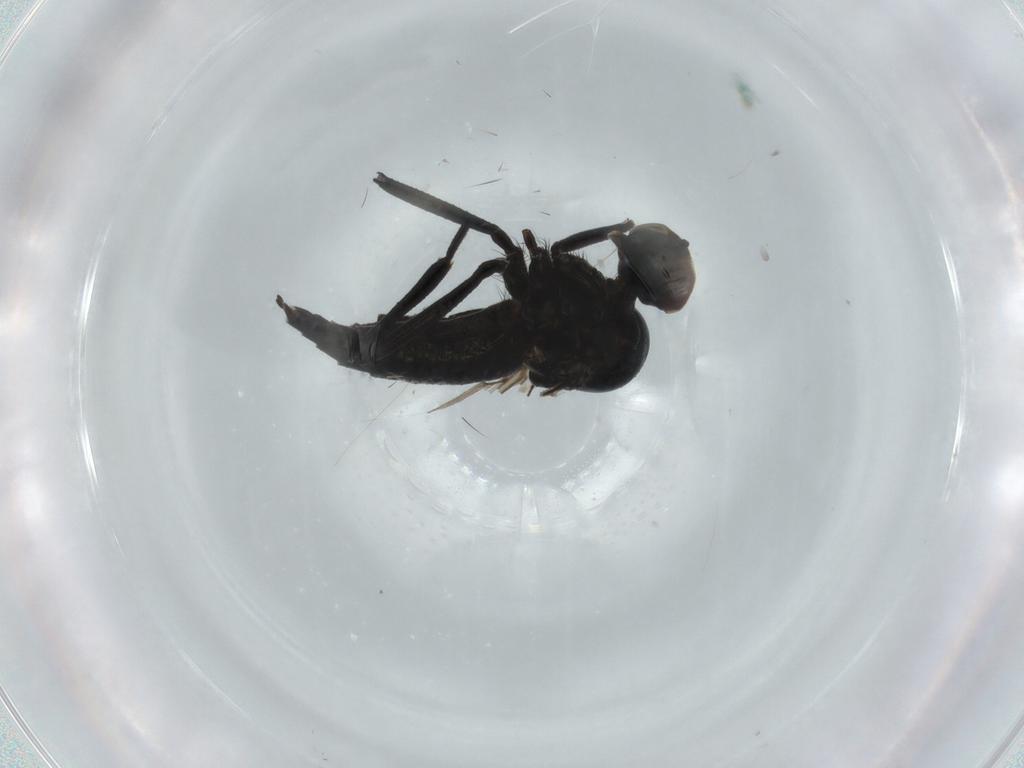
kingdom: Animalia
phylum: Arthropoda
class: Insecta
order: Diptera
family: Hybotidae
